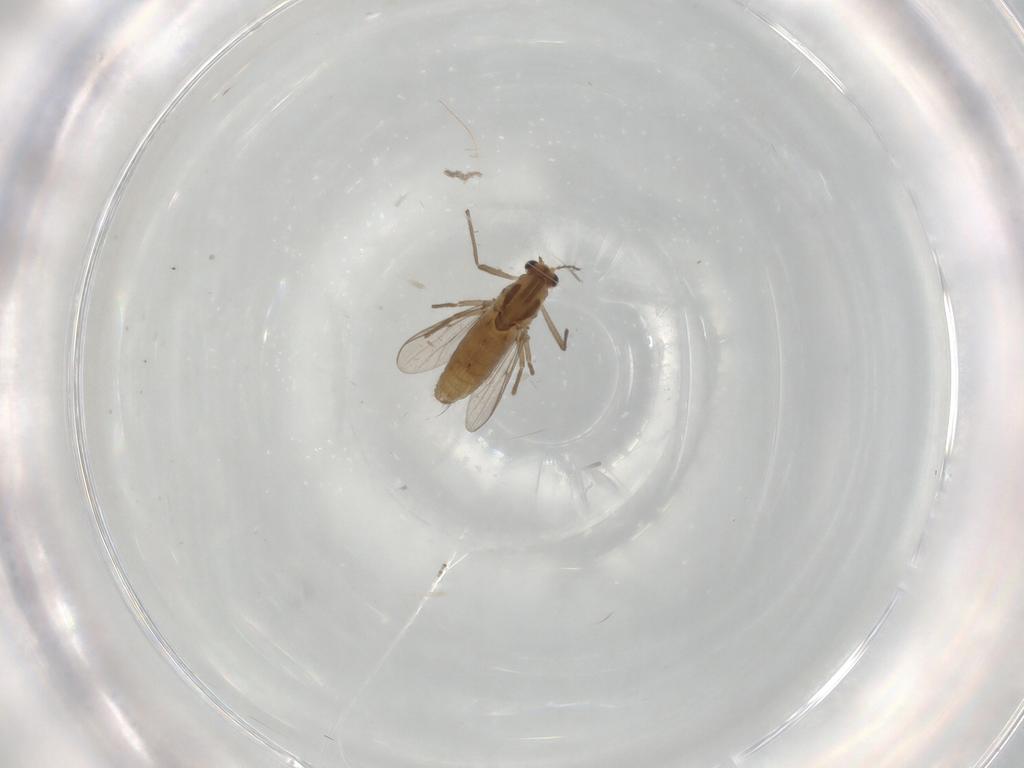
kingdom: Animalia
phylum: Arthropoda
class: Insecta
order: Diptera
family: Chironomidae
